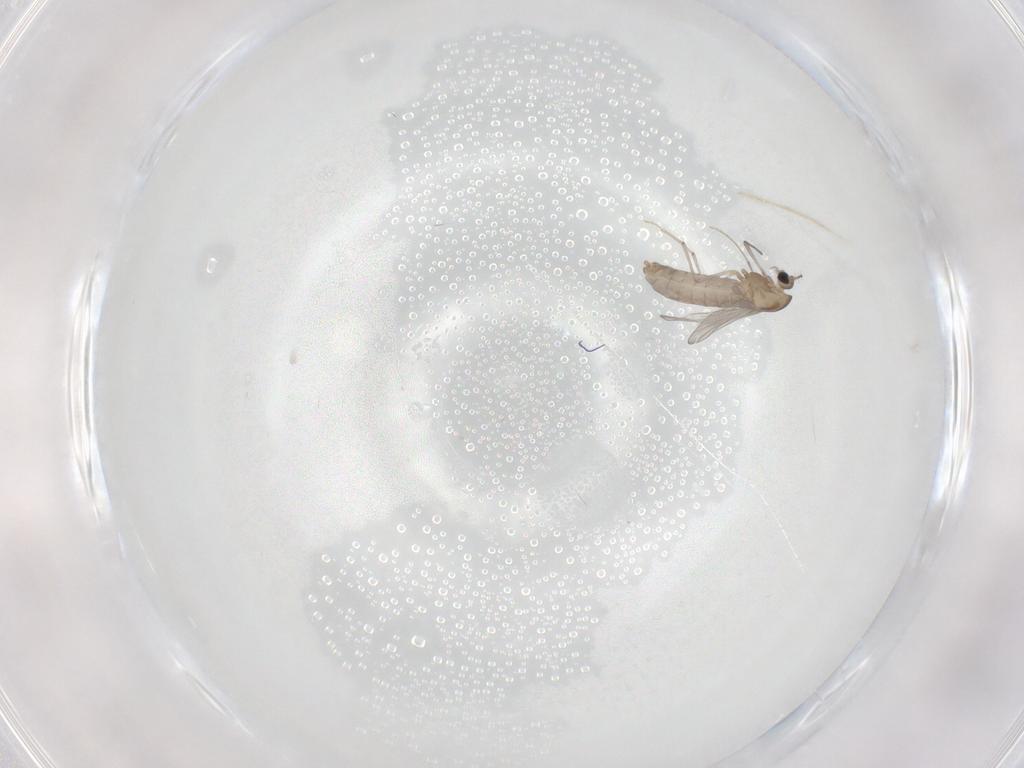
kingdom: Animalia
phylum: Arthropoda
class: Insecta
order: Diptera
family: Chironomidae
